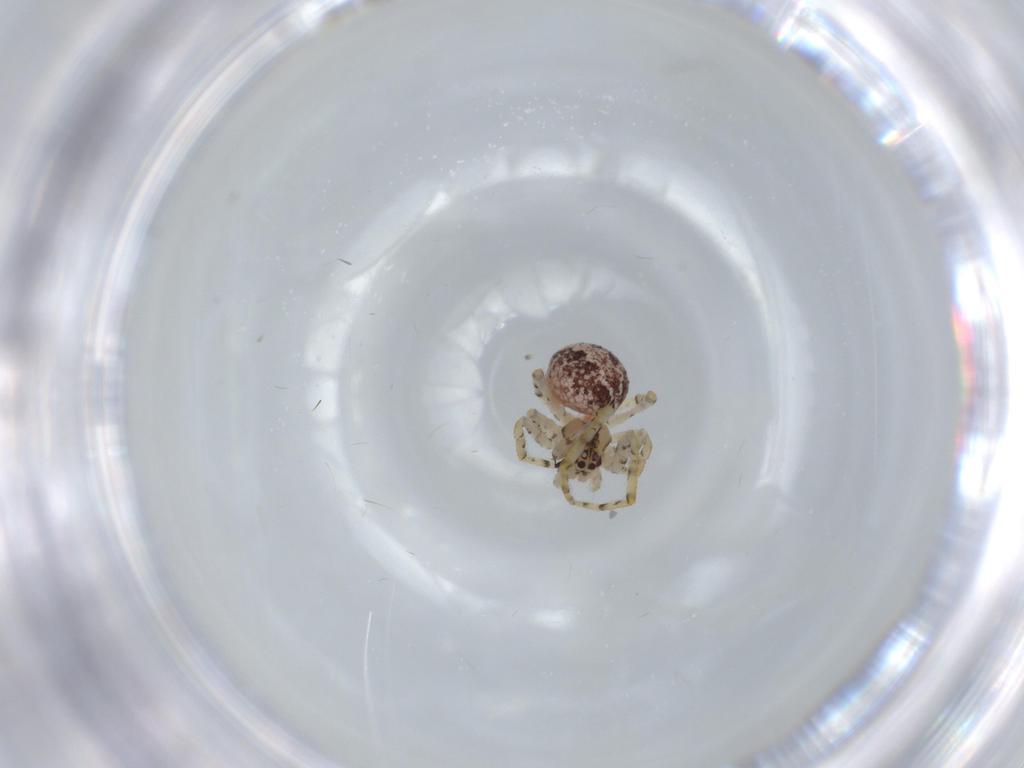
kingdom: Animalia
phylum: Arthropoda
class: Arachnida
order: Araneae
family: Theridiidae
